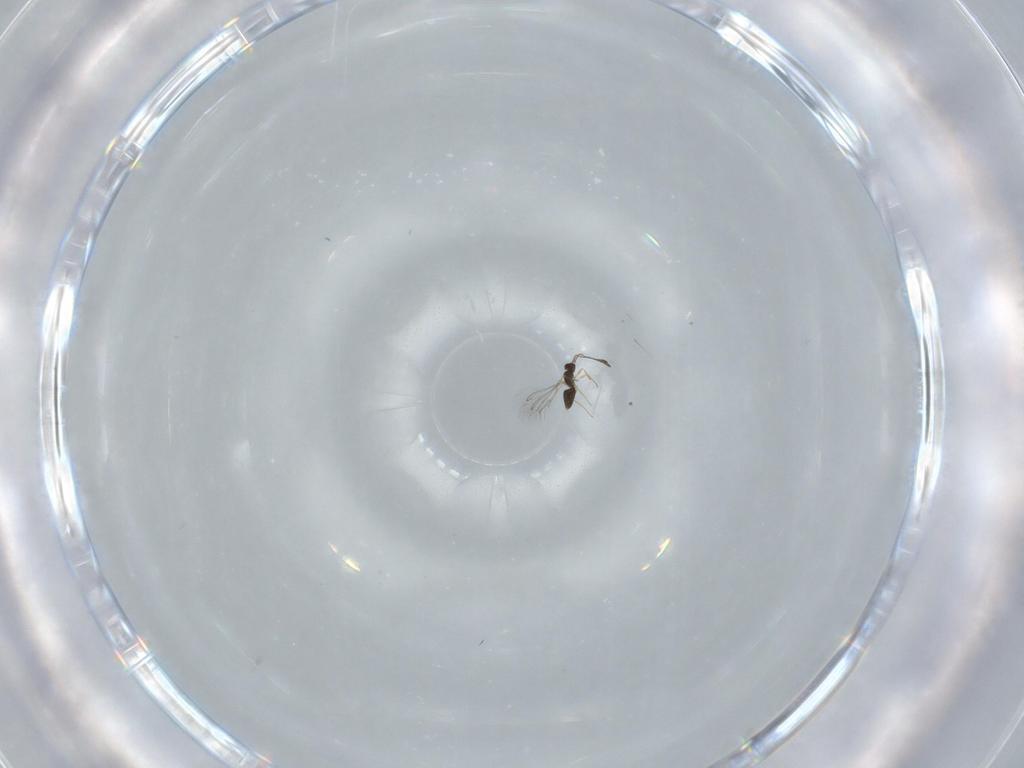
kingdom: Animalia
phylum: Arthropoda
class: Insecta
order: Hymenoptera
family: Mymaridae
